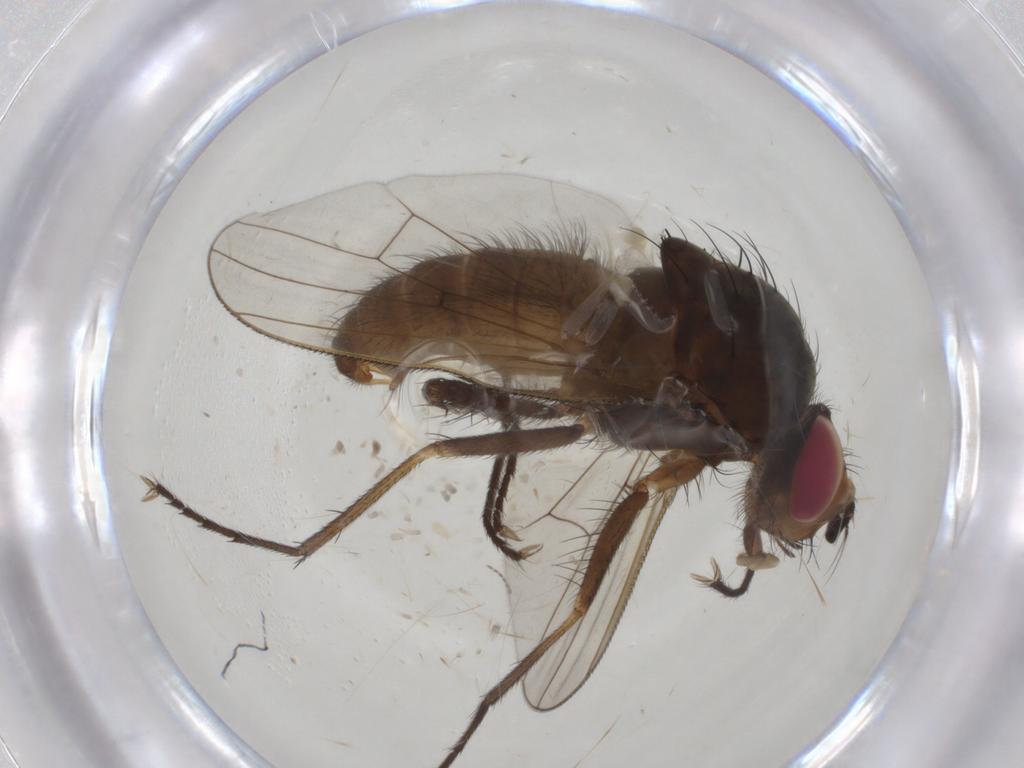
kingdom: Animalia
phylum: Arthropoda
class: Insecta
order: Diptera
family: Anthomyiidae
